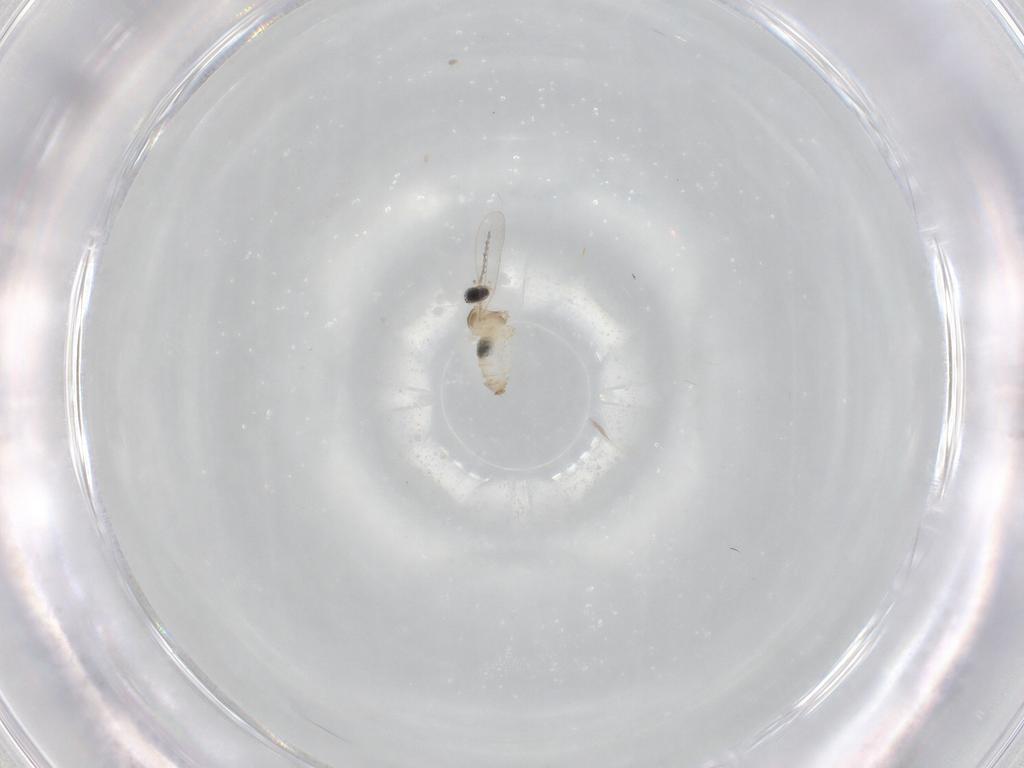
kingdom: Animalia
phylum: Arthropoda
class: Insecta
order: Diptera
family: Cecidomyiidae
